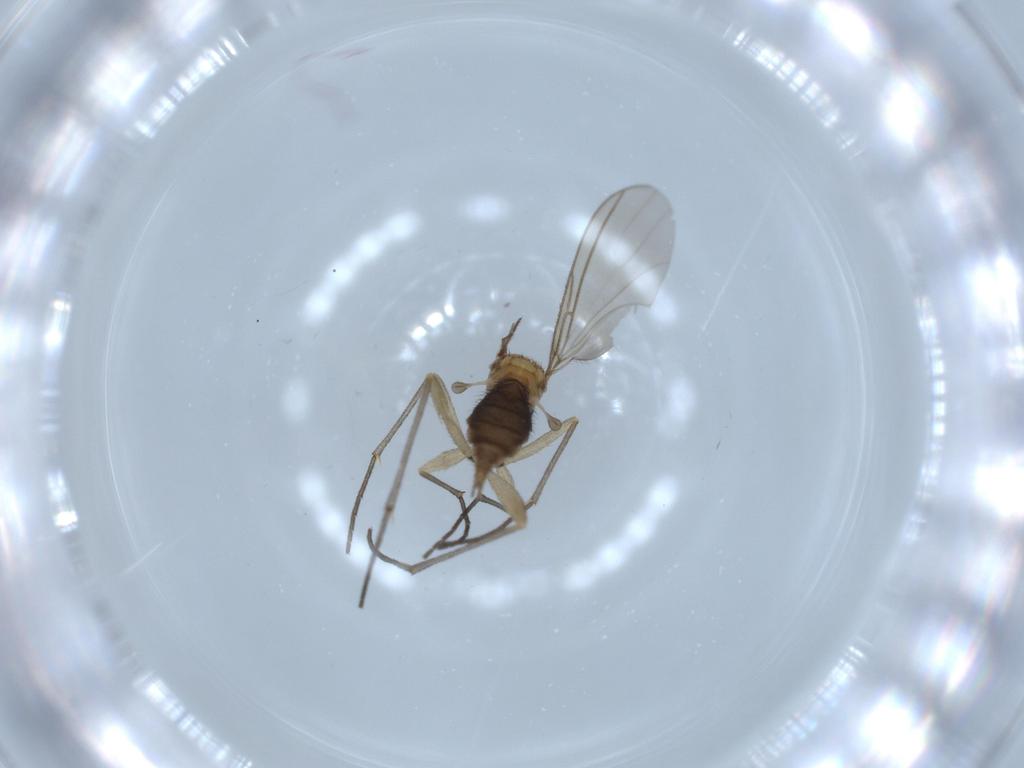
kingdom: Animalia
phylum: Arthropoda
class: Insecta
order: Diptera
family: Sciaridae
